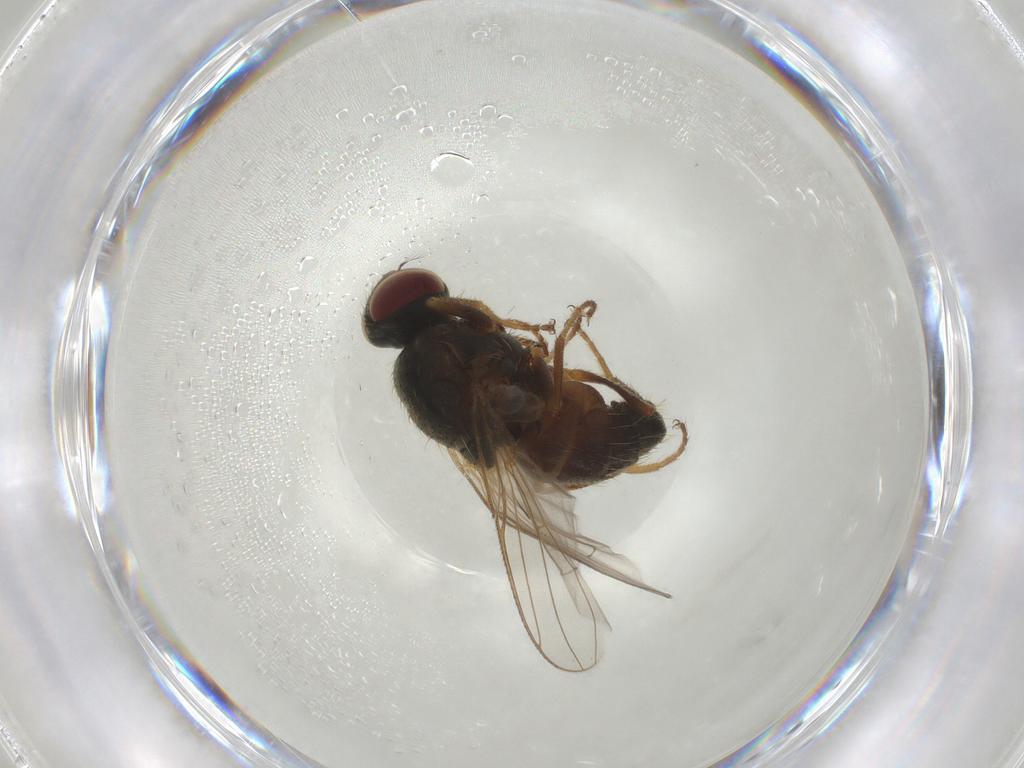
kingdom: Animalia
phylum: Arthropoda
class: Insecta
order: Diptera
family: Muscidae
